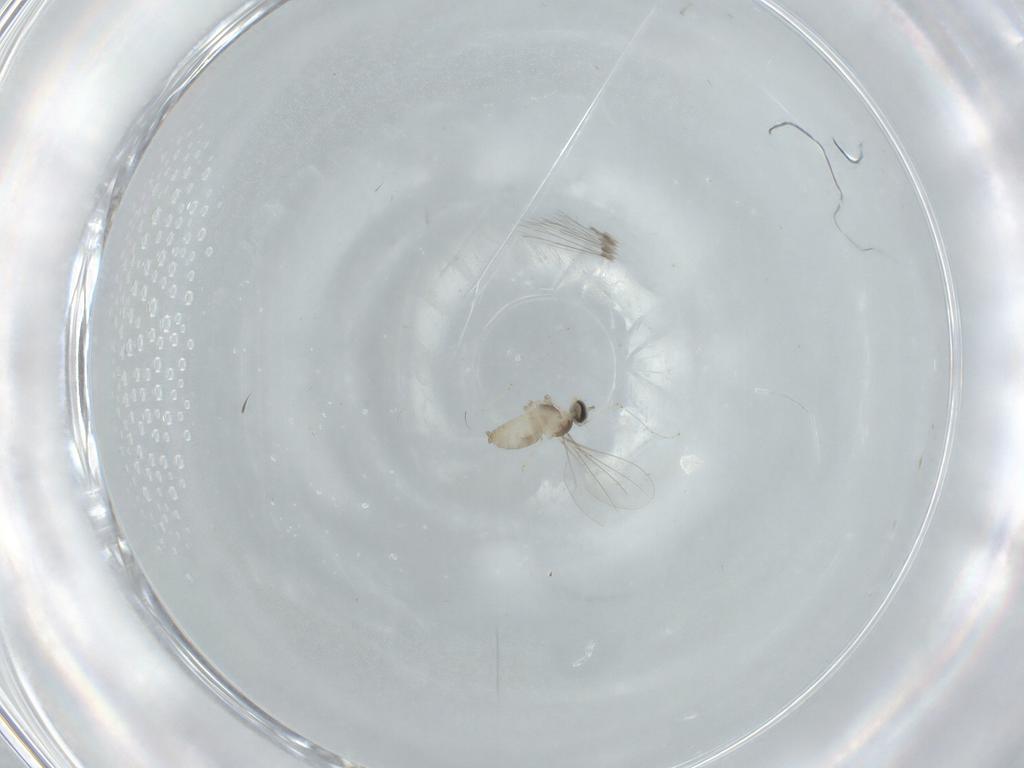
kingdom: Animalia
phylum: Arthropoda
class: Insecta
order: Diptera
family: Cecidomyiidae
